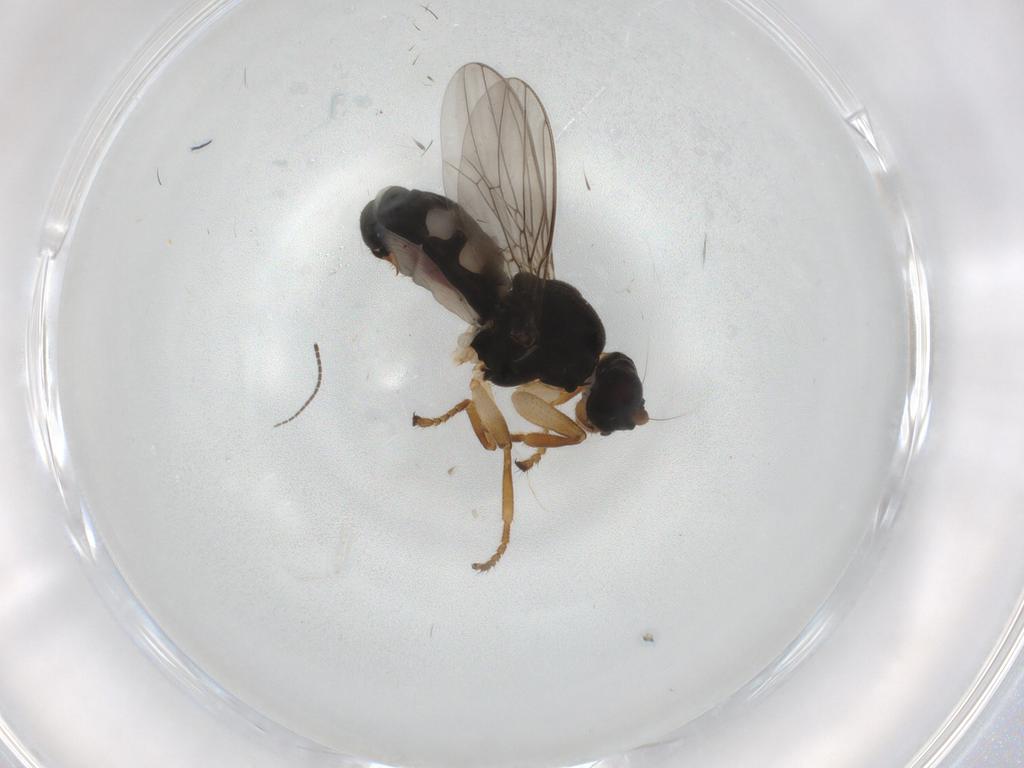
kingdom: Animalia
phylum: Arthropoda
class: Insecta
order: Diptera
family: Sphaeroceridae
